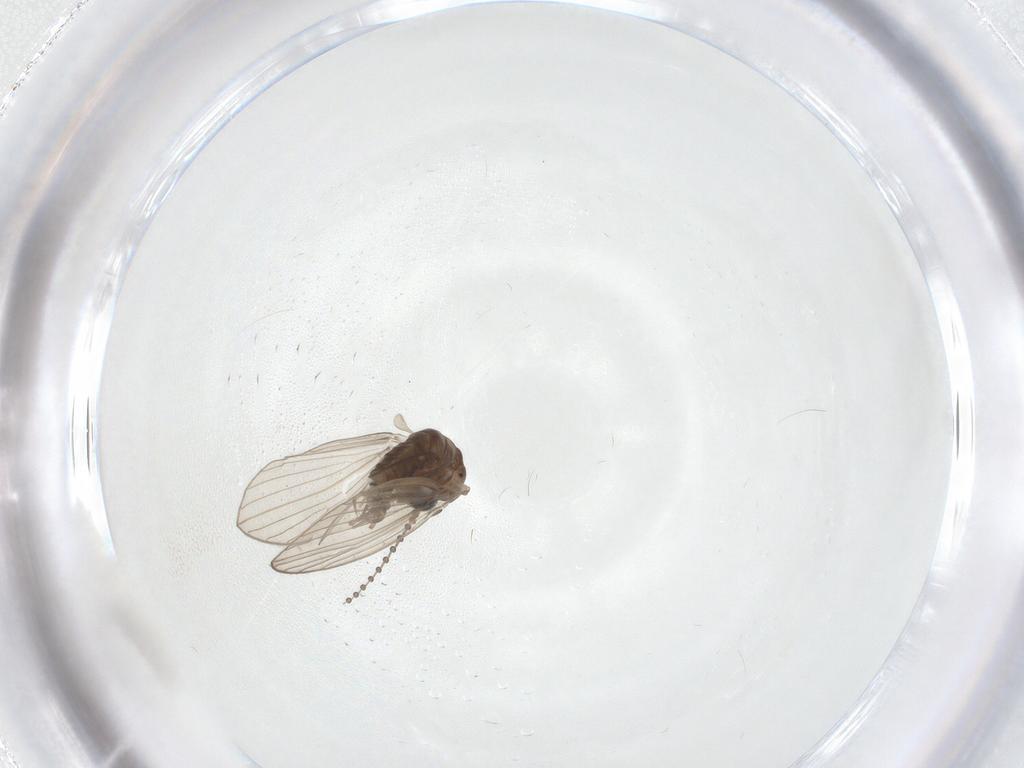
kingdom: Animalia
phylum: Arthropoda
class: Insecta
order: Diptera
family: Psychodidae
